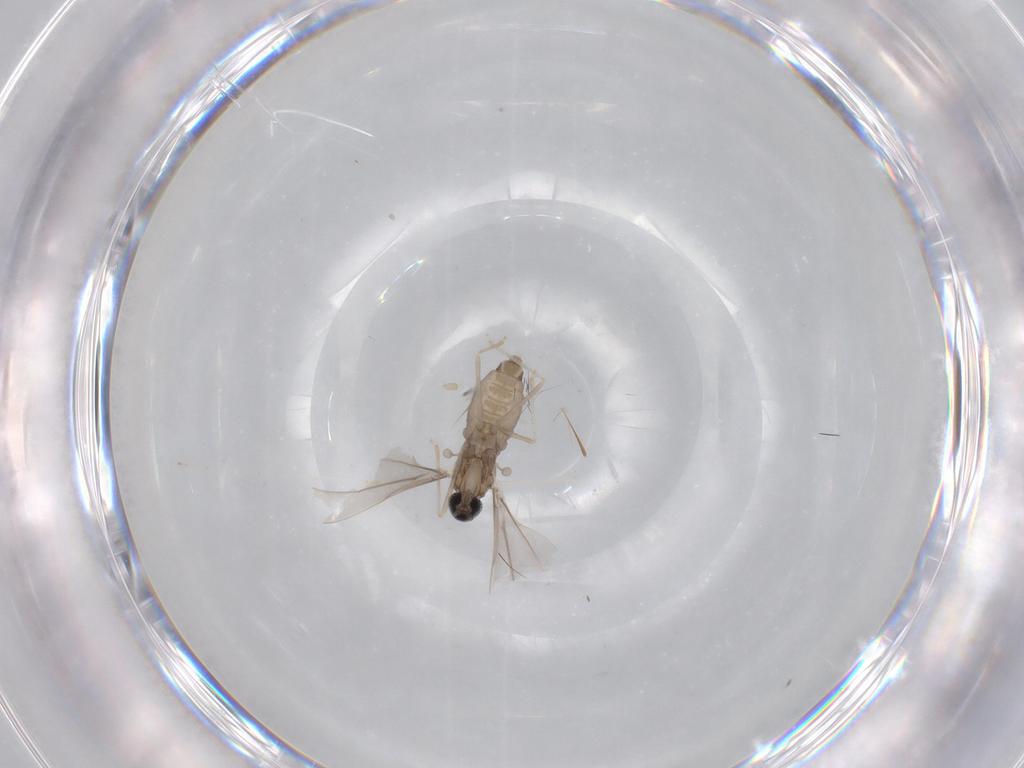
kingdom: Animalia
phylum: Arthropoda
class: Insecta
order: Diptera
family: Cecidomyiidae
